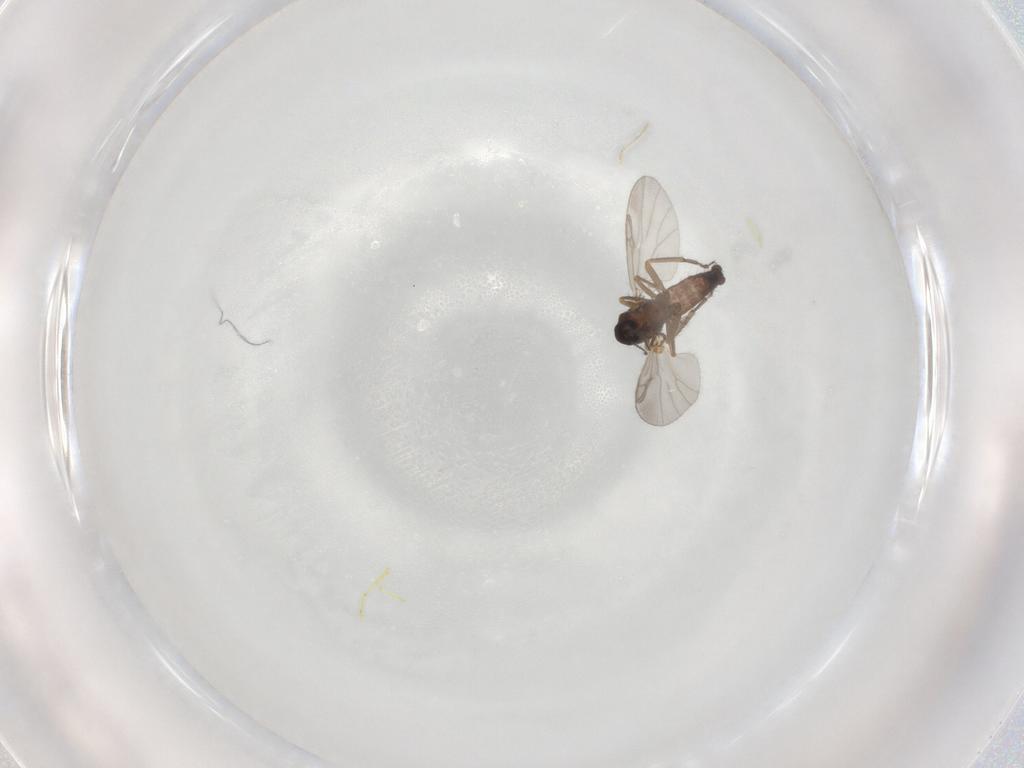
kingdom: Animalia
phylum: Arthropoda
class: Insecta
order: Diptera
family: Ceratopogonidae
